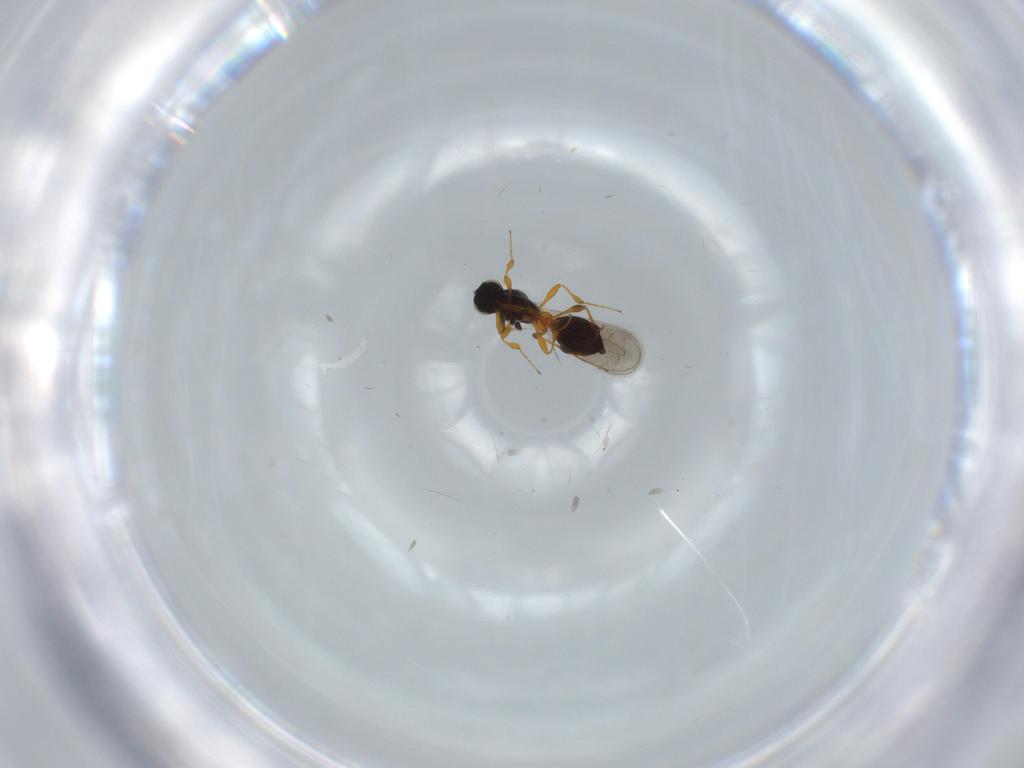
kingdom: Animalia
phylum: Arthropoda
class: Insecta
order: Hymenoptera
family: Platygastridae
